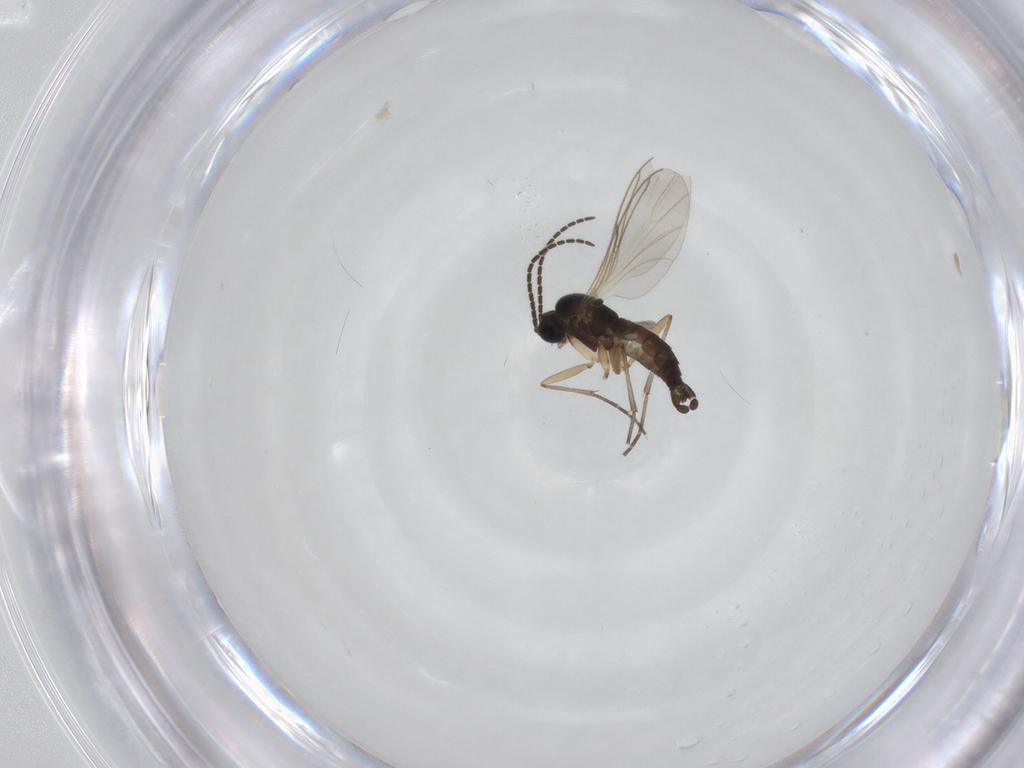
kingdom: Animalia
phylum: Arthropoda
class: Insecta
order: Diptera
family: Sciaridae
